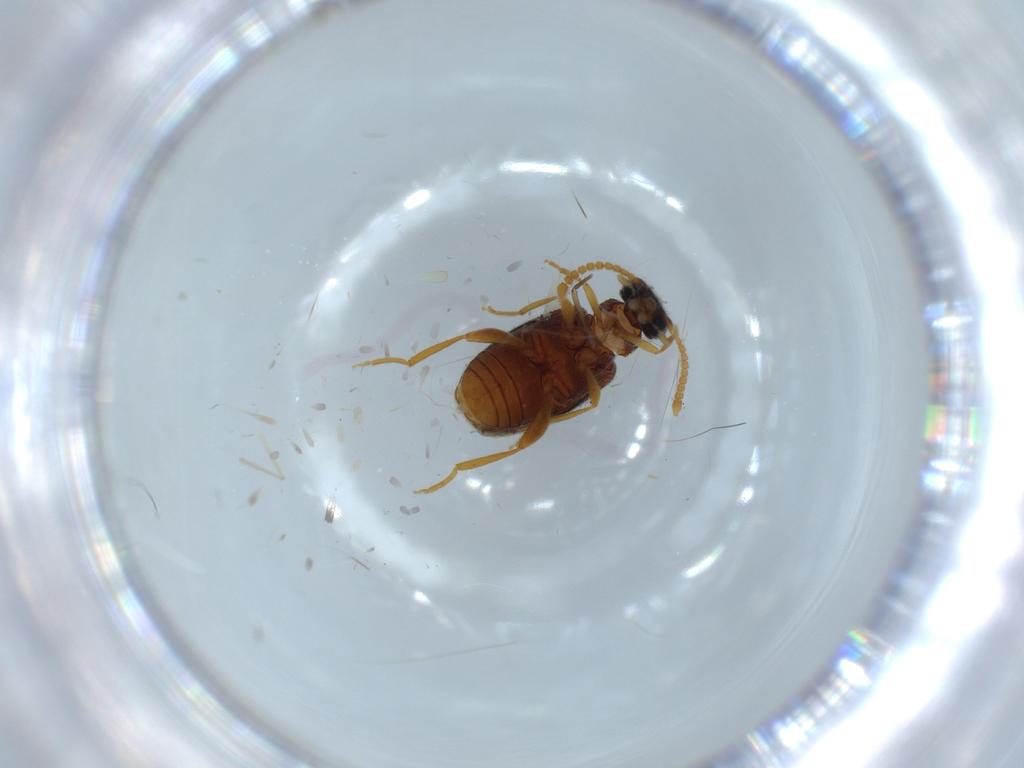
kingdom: Animalia
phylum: Arthropoda
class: Insecta
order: Coleoptera
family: Aderidae
